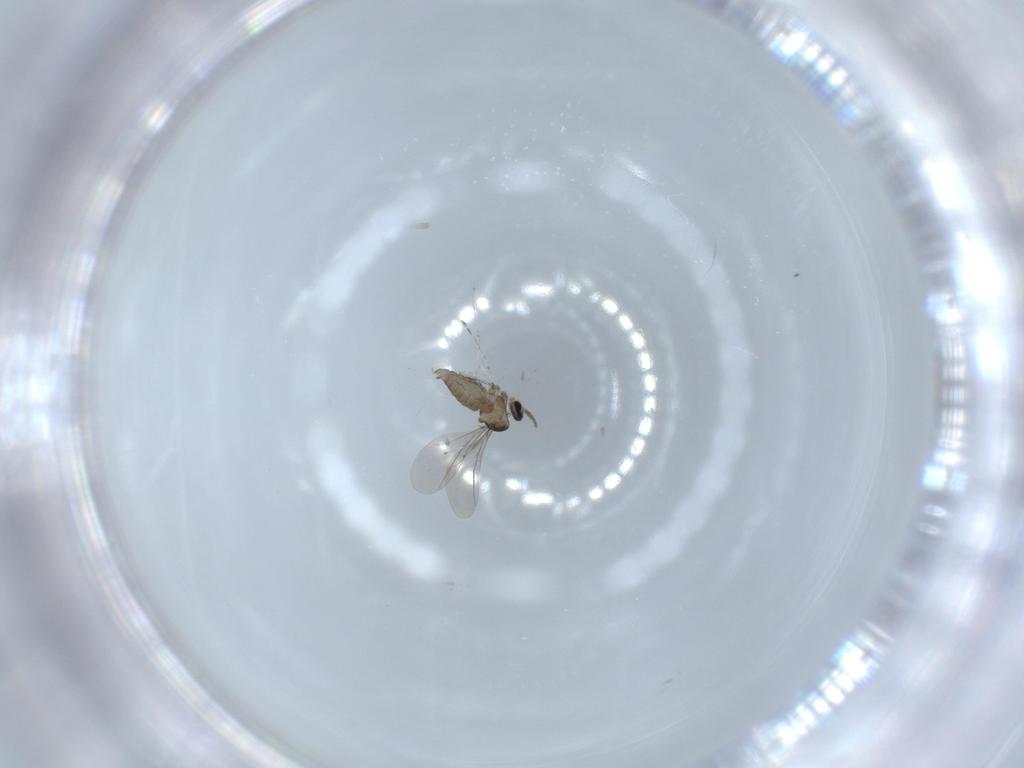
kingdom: Animalia
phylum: Arthropoda
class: Insecta
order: Diptera
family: Cecidomyiidae
